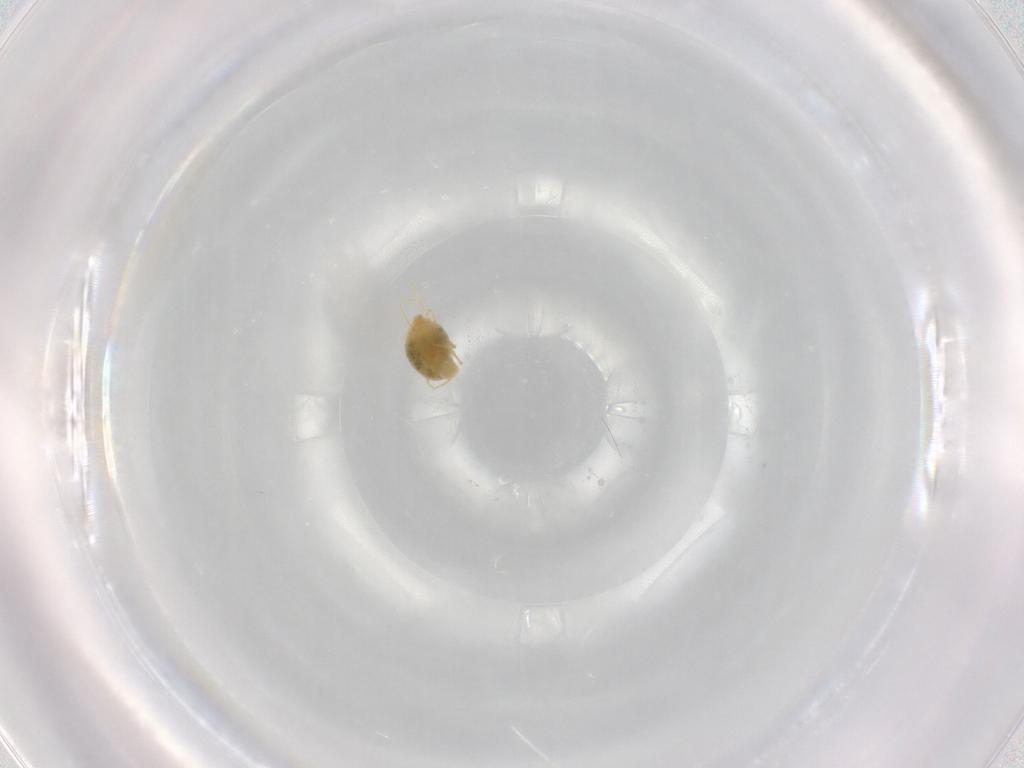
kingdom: Animalia
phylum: Arthropoda
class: Arachnida
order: Trombidiformes
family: Tetranychidae
